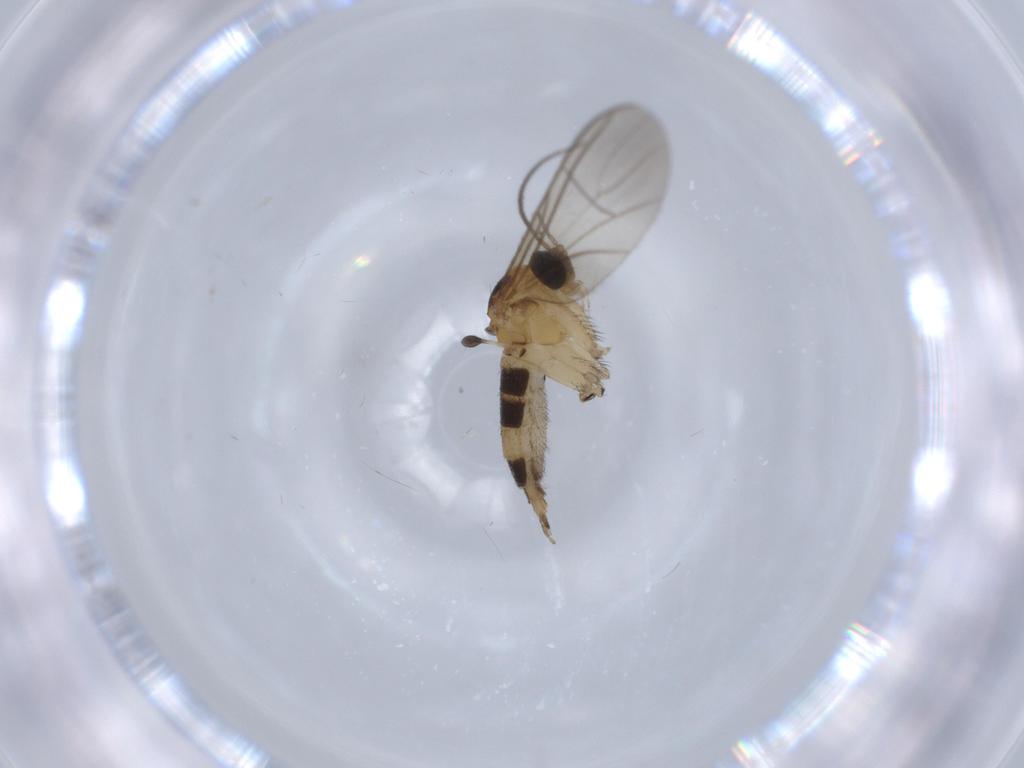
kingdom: Animalia
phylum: Arthropoda
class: Insecta
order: Diptera
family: Sciaridae
